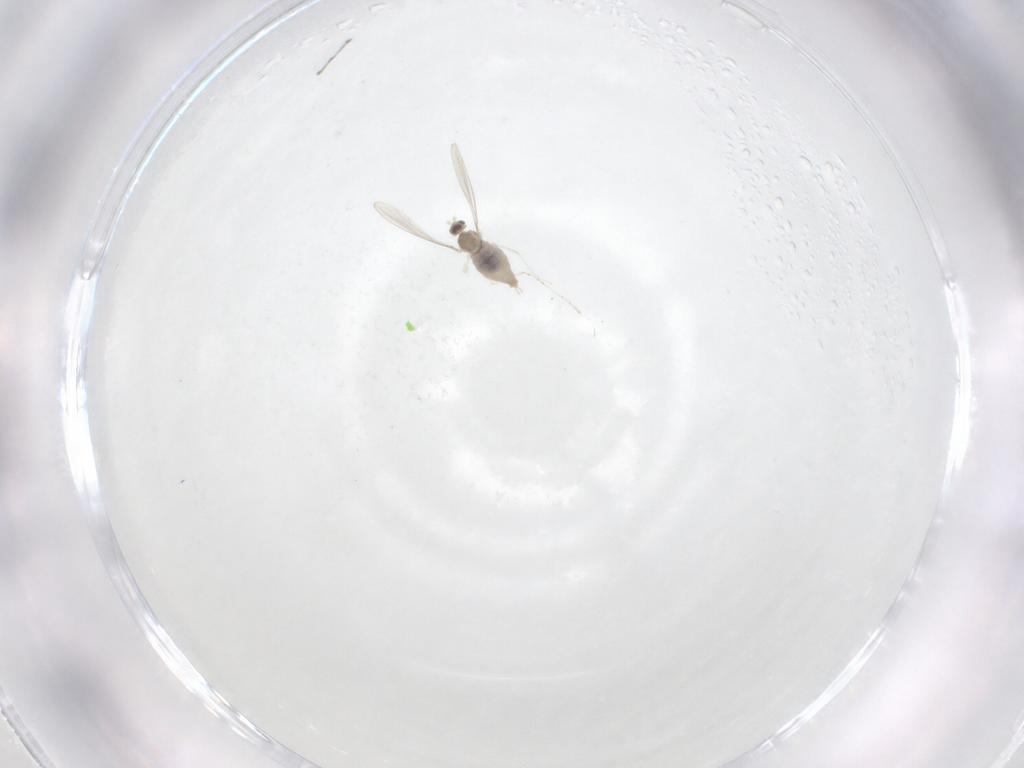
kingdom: Animalia
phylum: Arthropoda
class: Insecta
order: Diptera
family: Cecidomyiidae
